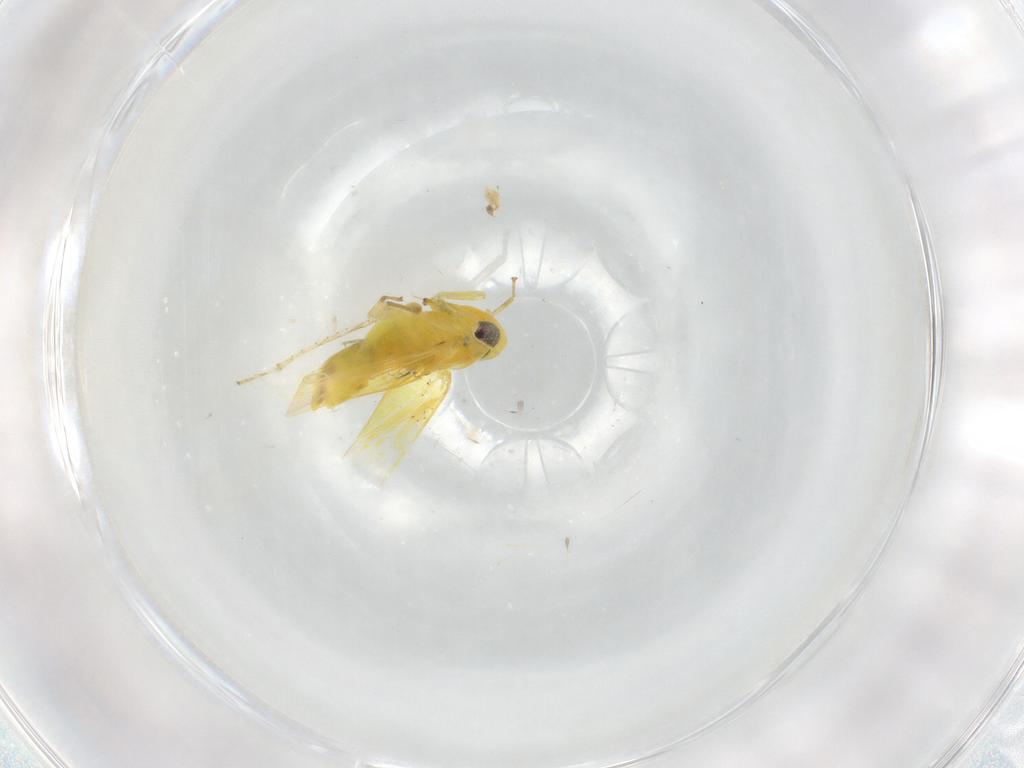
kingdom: Animalia
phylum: Arthropoda
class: Insecta
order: Hemiptera
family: Cicadellidae
